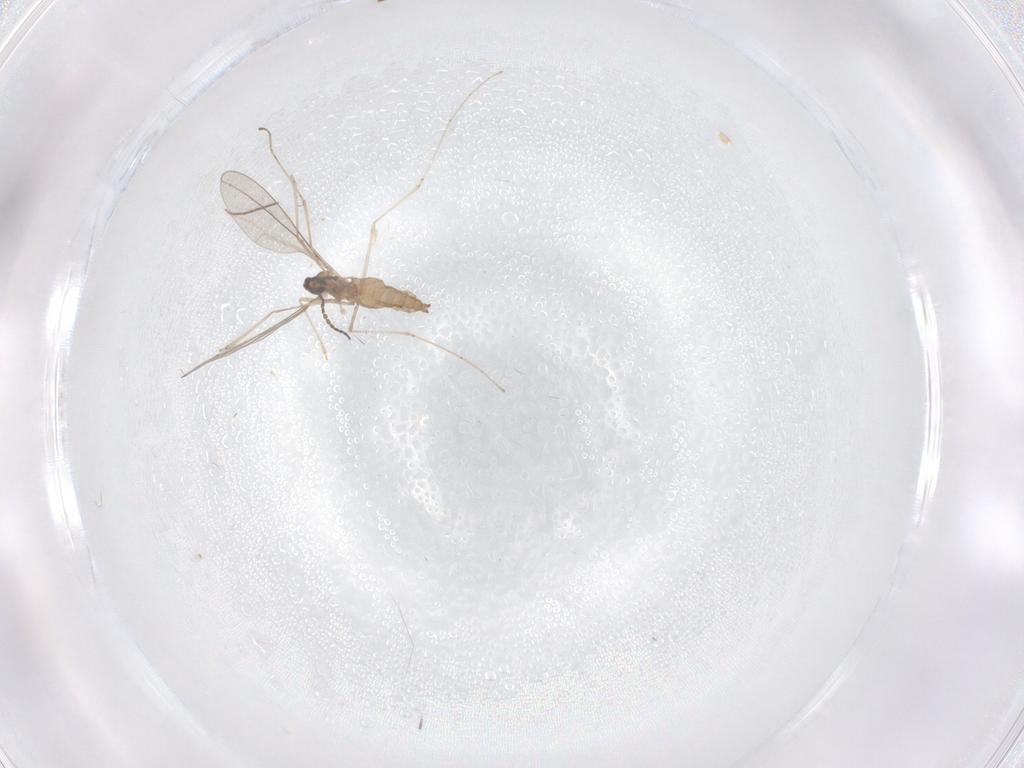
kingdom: Animalia
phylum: Arthropoda
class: Insecta
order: Diptera
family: Cecidomyiidae
